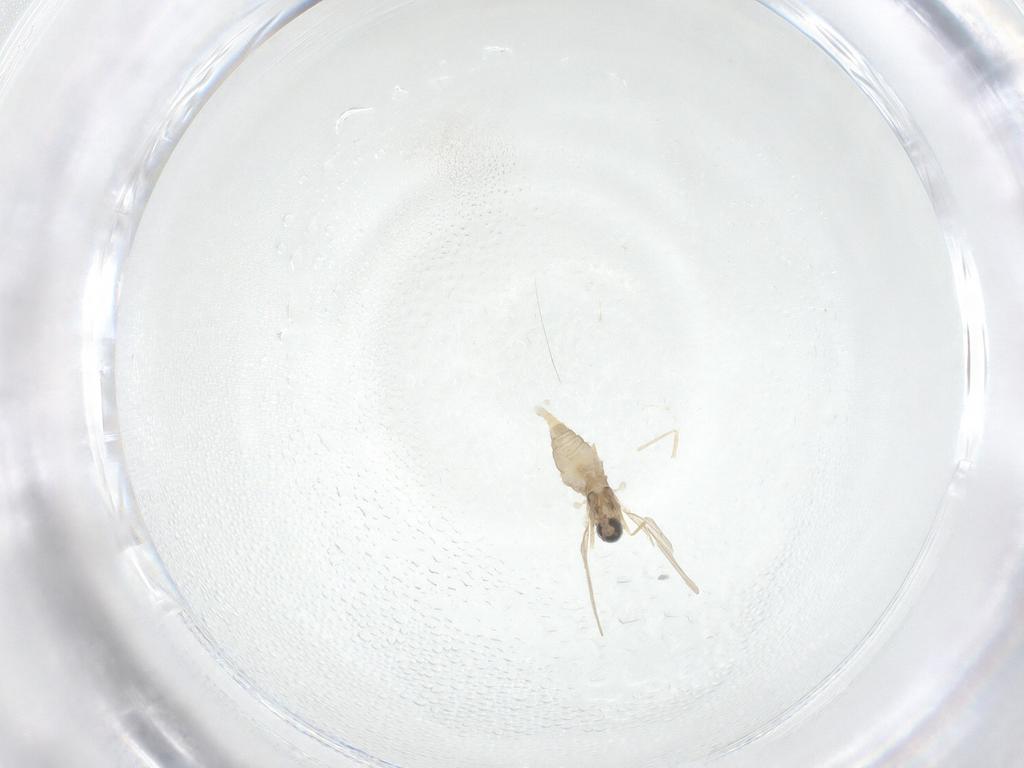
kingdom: Animalia
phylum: Arthropoda
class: Insecta
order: Diptera
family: Cecidomyiidae
